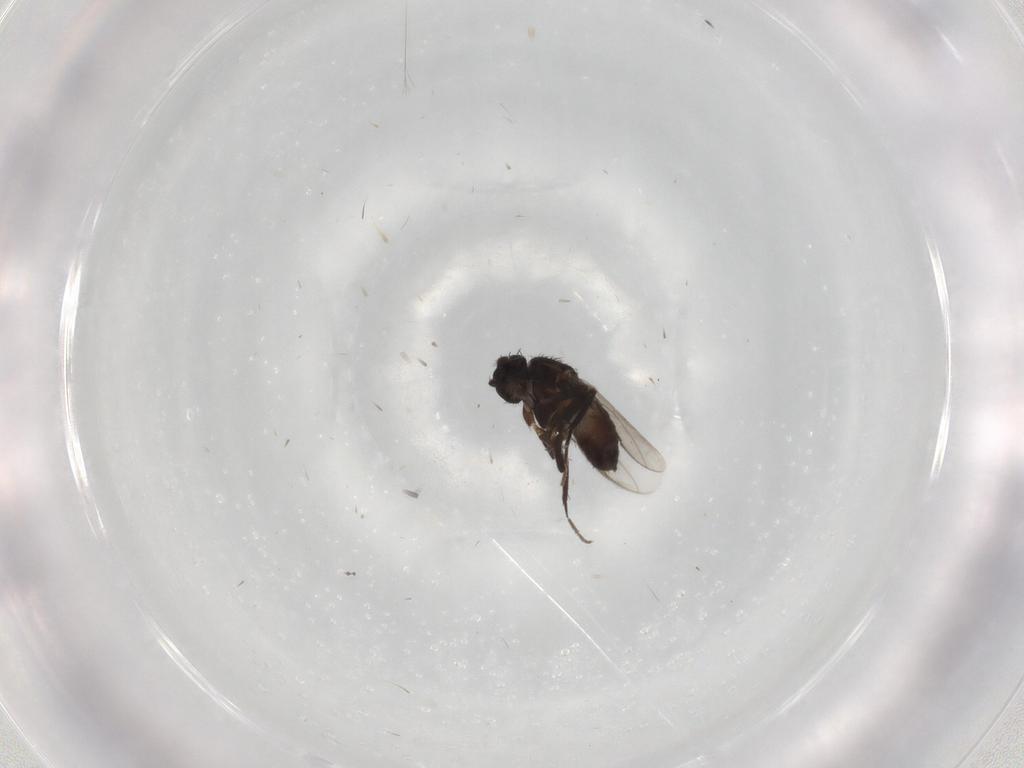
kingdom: Animalia
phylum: Arthropoda
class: Insecta
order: Diptera
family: Sphaeroceridae
